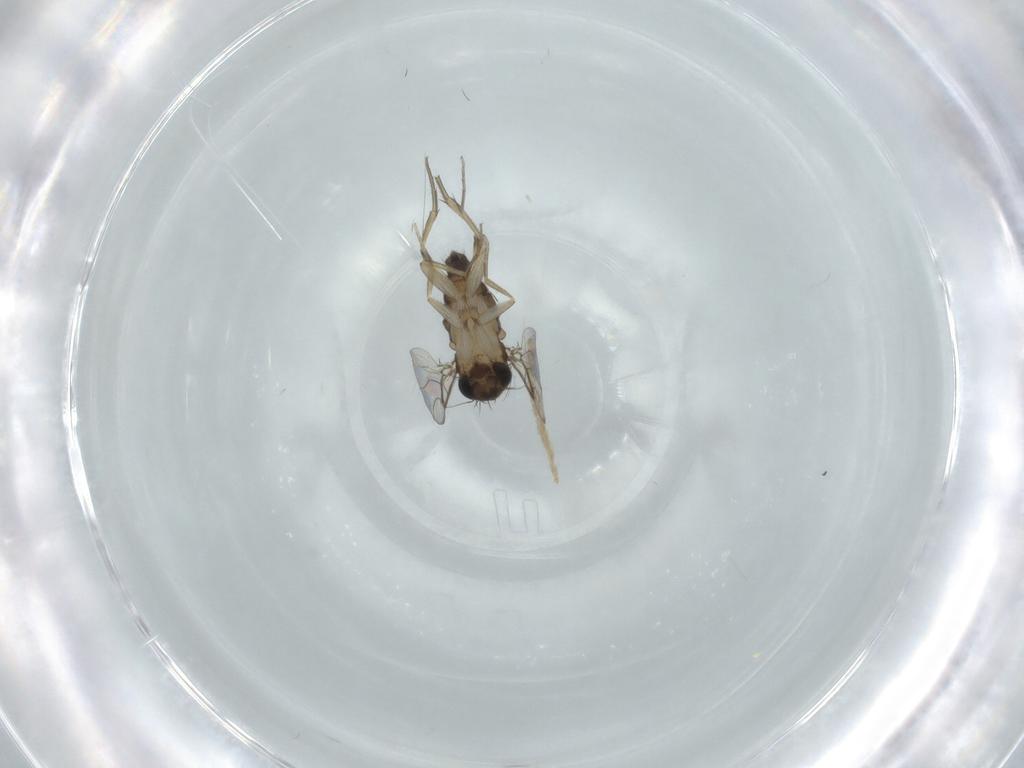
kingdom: Animalia
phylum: Arthropoda
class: Insecta
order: Diptera
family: Phoridae
